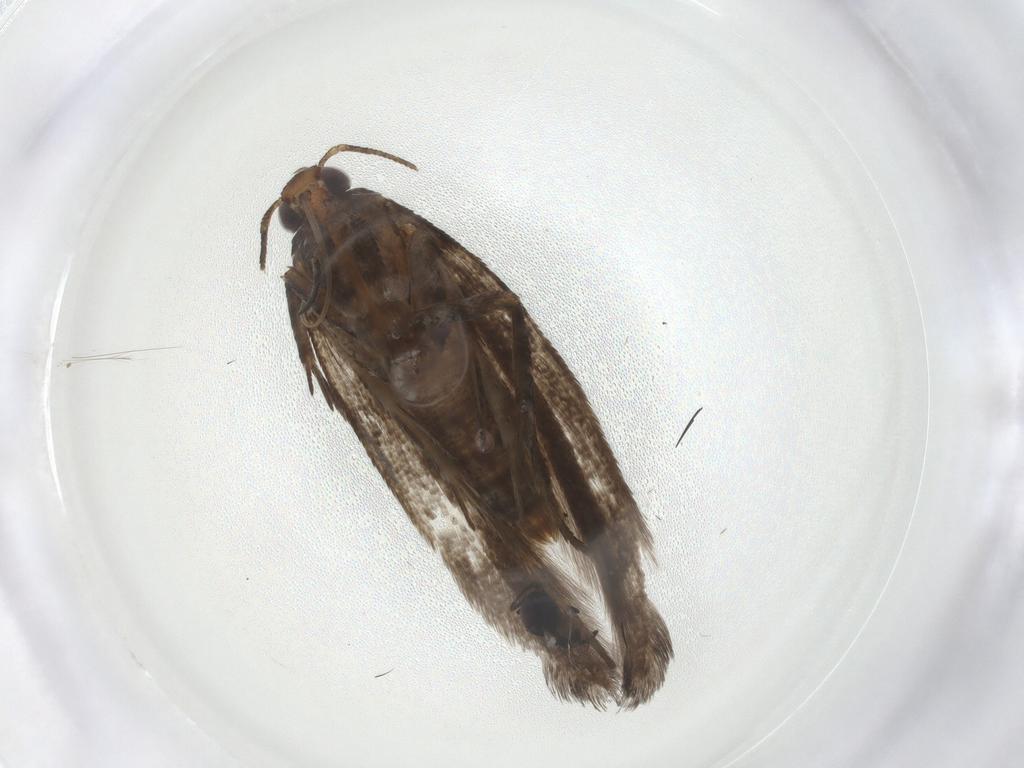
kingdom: Animalia
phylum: Arthropoda
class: Insecta
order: Lepidoptera
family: Gelechiidae
